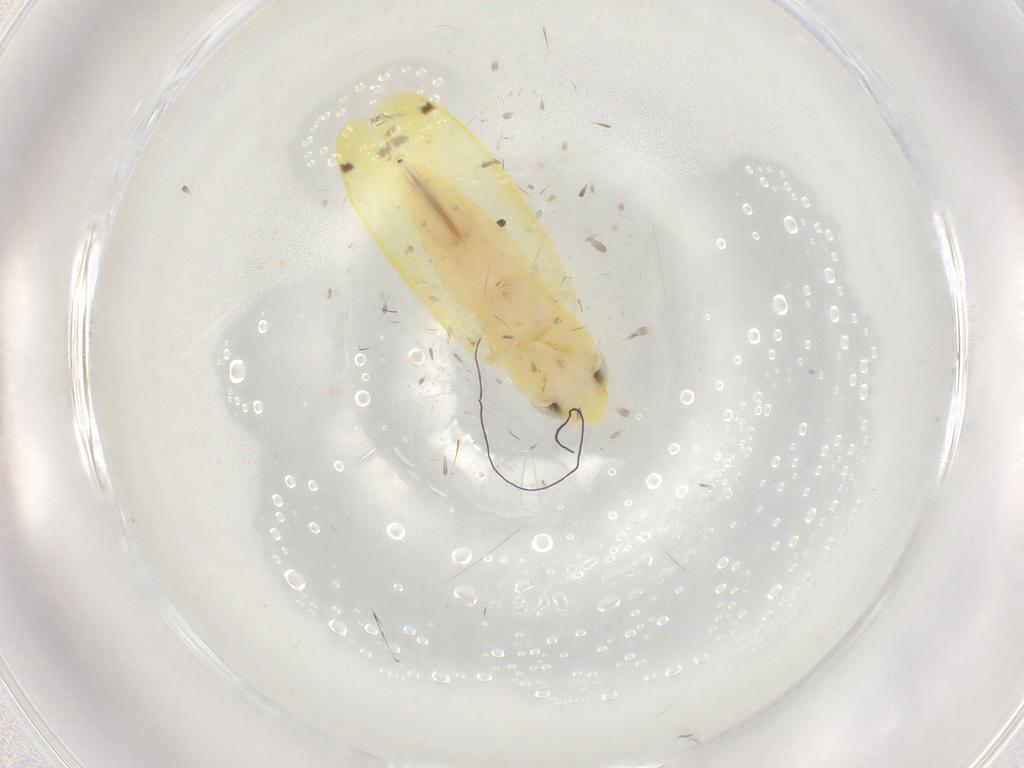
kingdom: Animalia
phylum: Arthropoda
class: Insecta
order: Hemiptera
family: Cicadellidae
